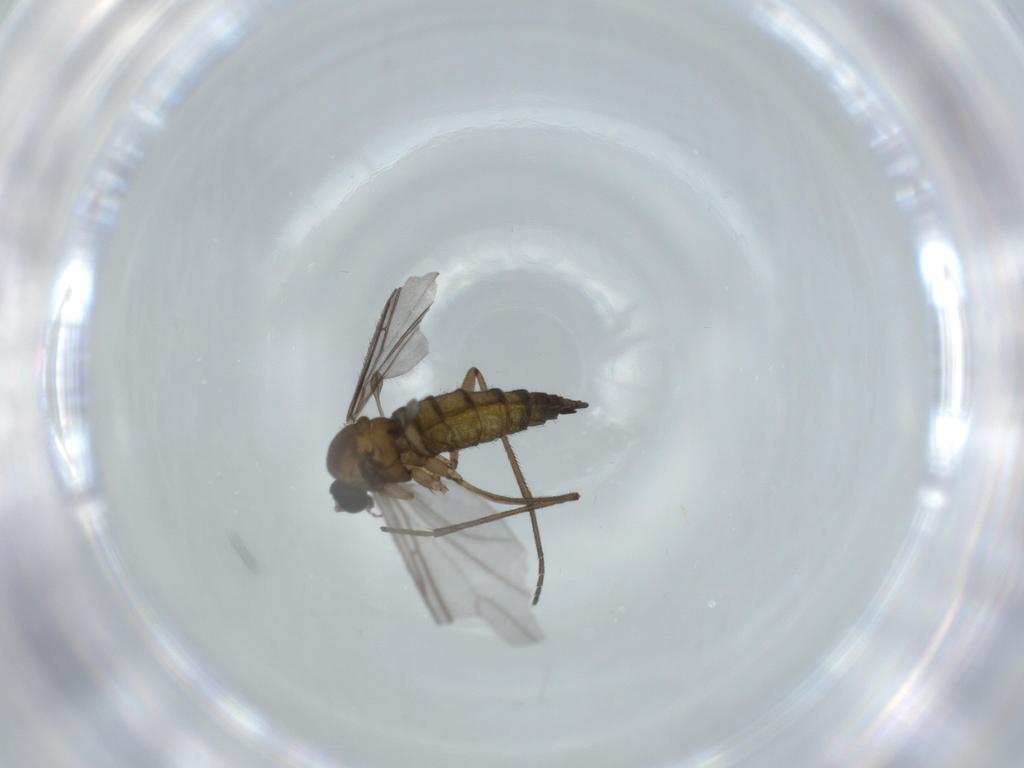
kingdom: Animalia
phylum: Arthropoda
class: Insecta
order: Diptera
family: Sciaridae
